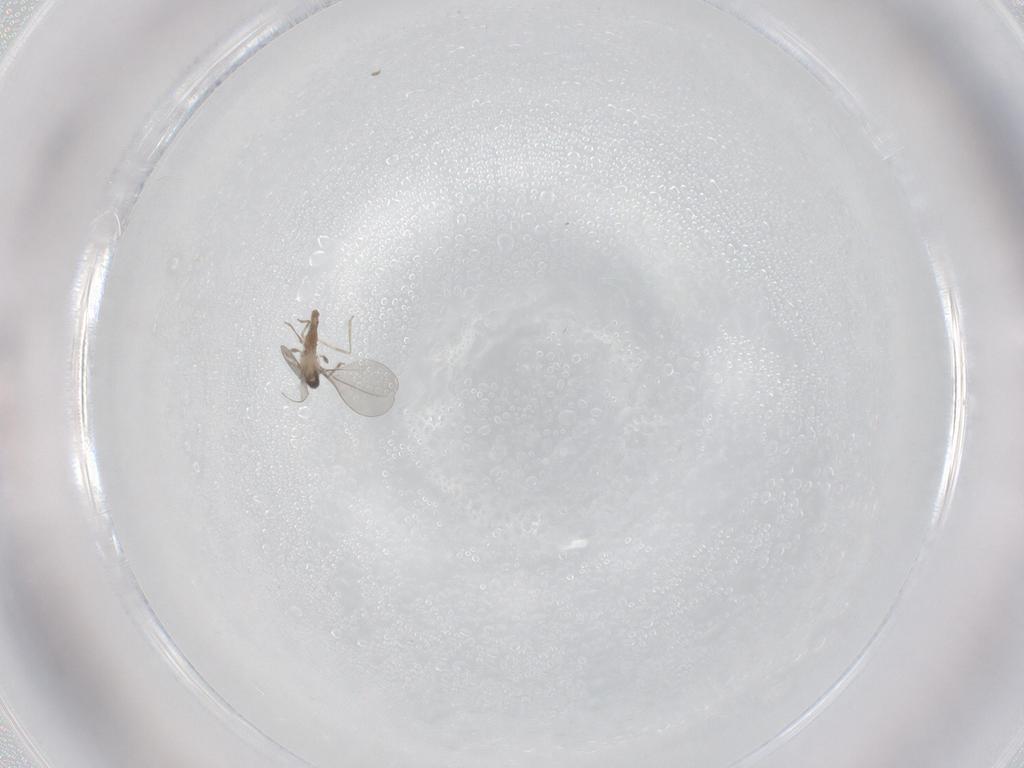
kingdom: Animalia
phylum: Arthropoda
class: Insecta
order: Diptera
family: Cecidomyiidae
